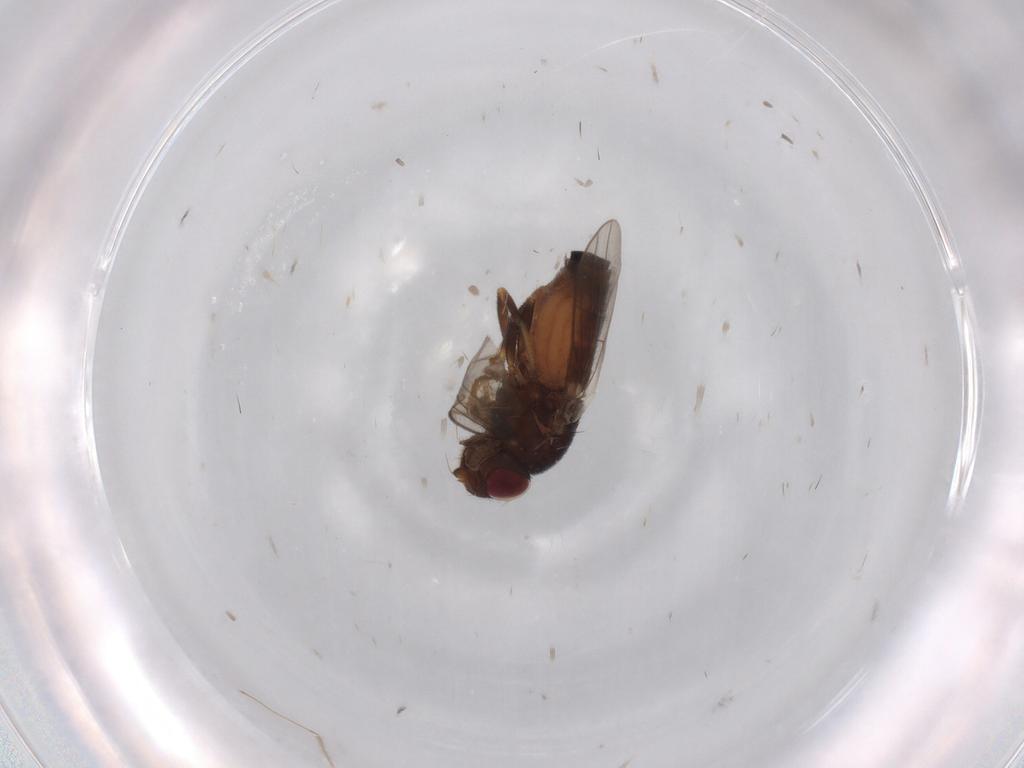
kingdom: Animalia
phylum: Arthropoda
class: Insecta
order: Diptera
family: Chloropidae
